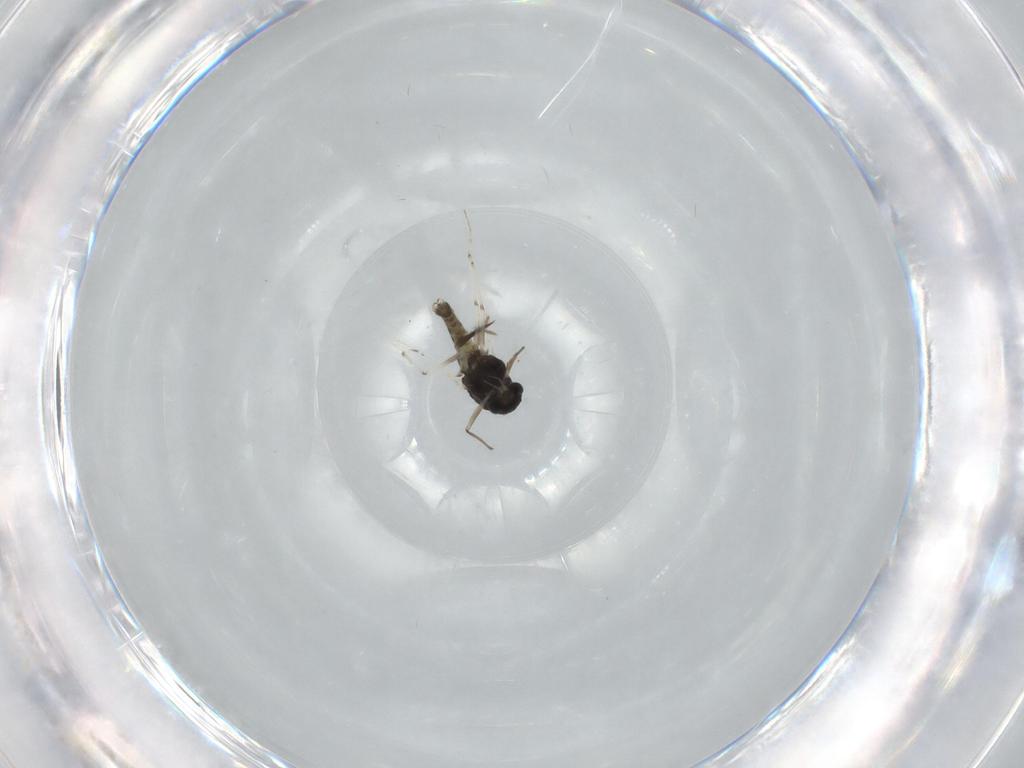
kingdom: Animalia
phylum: Arthropoda
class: Insecta
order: Diptera
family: Chironomidae
